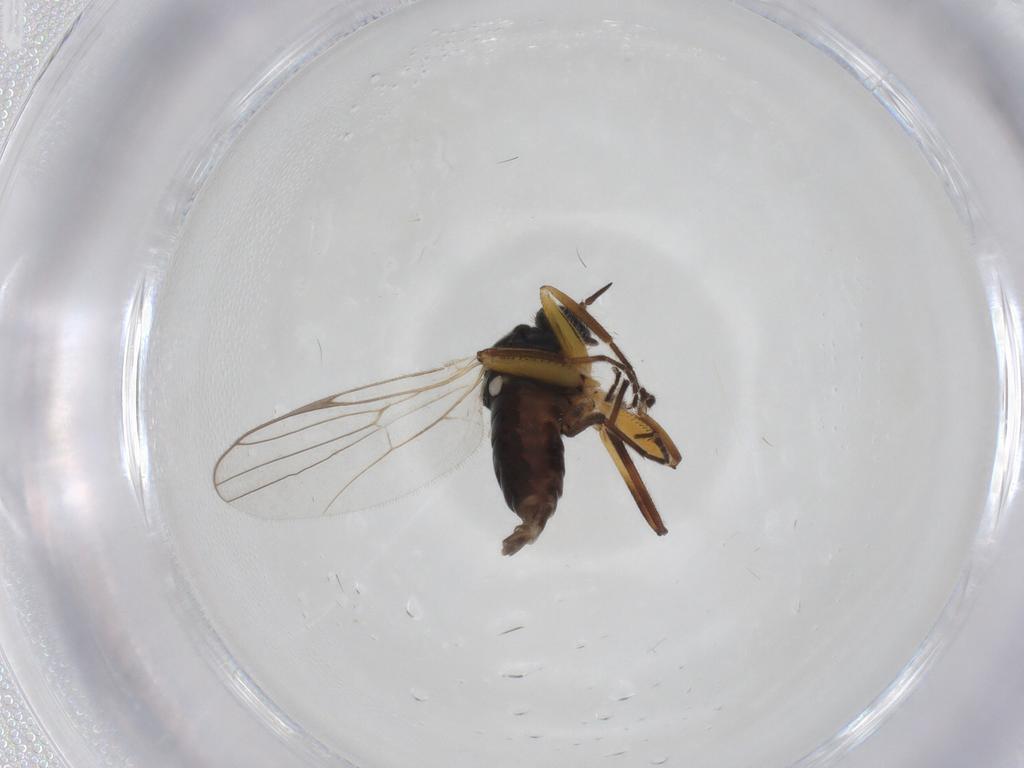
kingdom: Animalia
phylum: Arthropoda
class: Insecta
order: Diptera
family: Hybotidae
